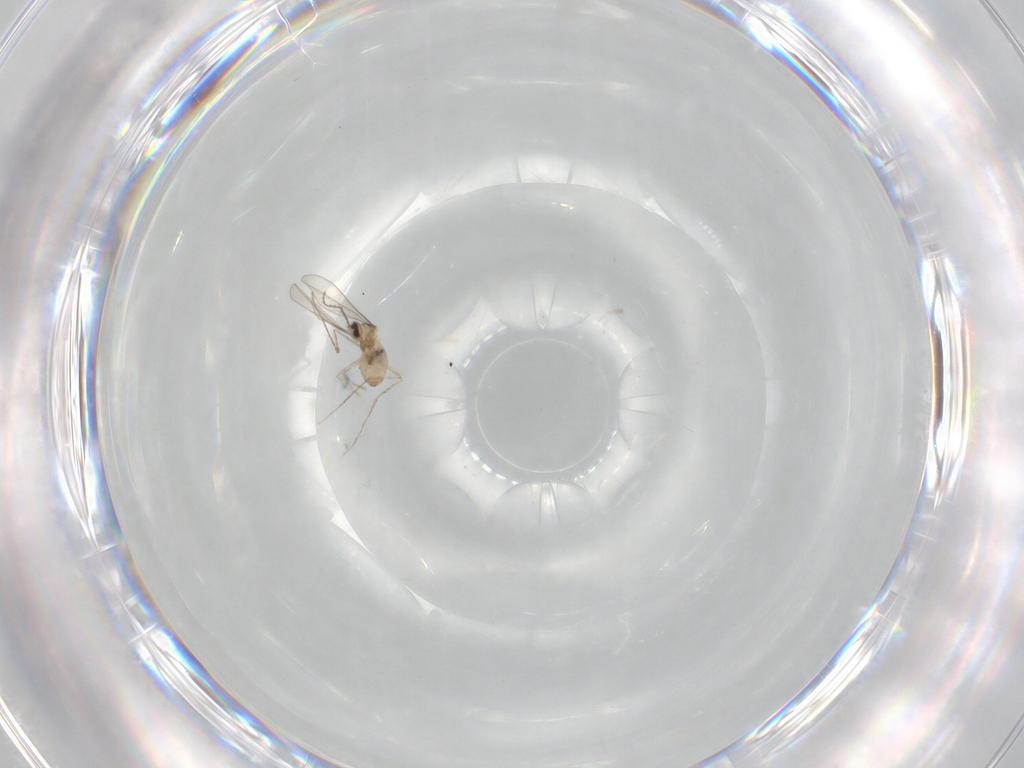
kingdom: Animalia
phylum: Arthropoda
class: Insecta
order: Diptera
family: Cecidomyiidae
